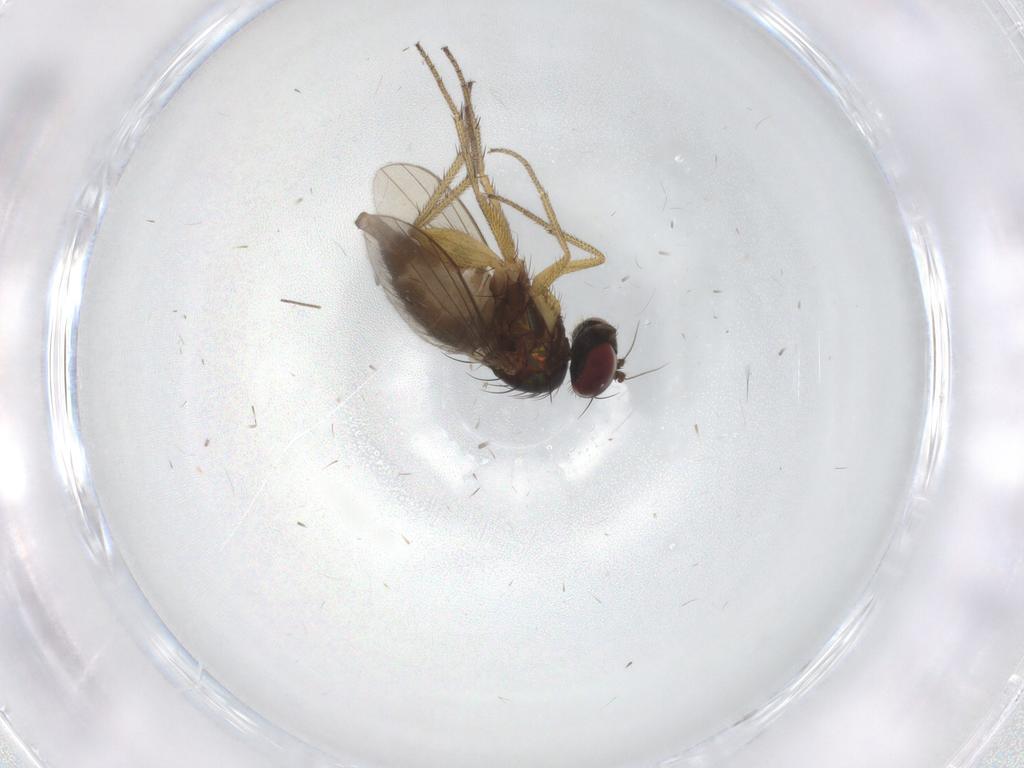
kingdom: Animalia
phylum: Arthropoda
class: Insecta
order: Diptera
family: Dolichopodidae
